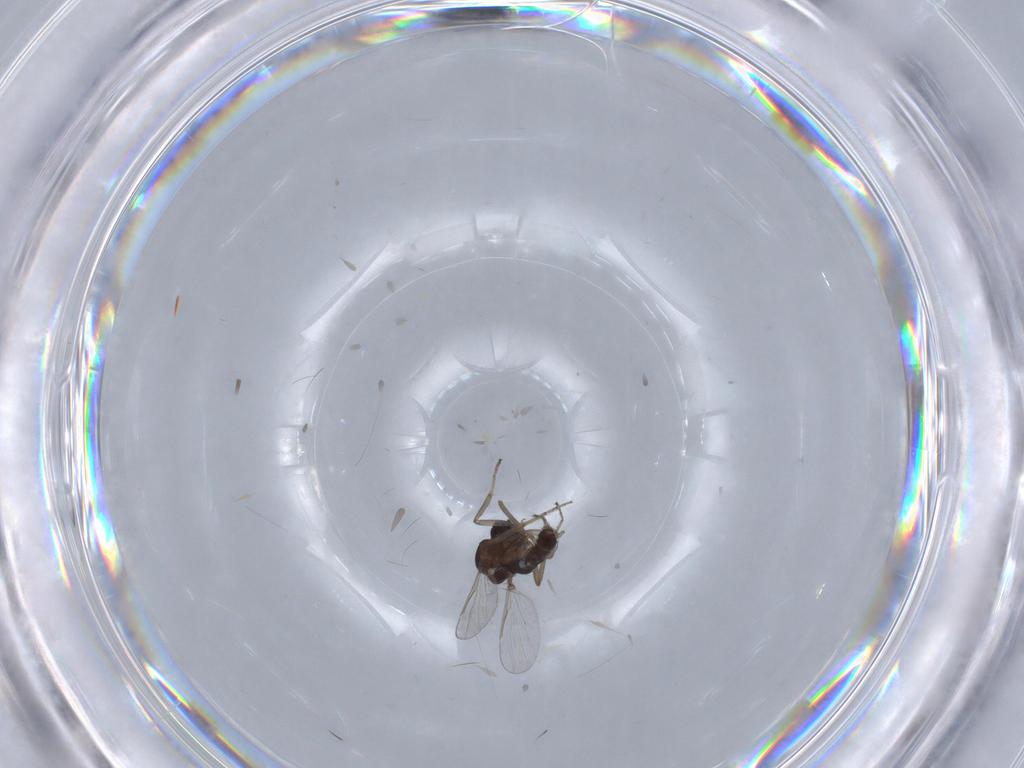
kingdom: Animalia
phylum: Arthropoda
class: Insecta
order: Diptera
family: Ceratopogonidae
